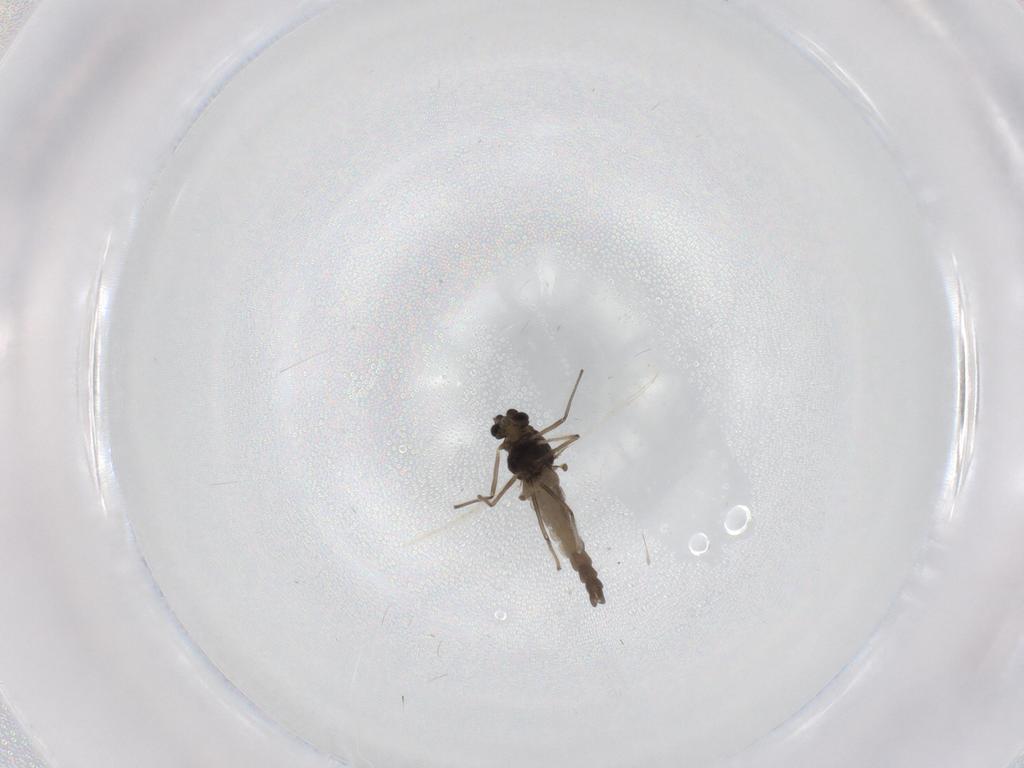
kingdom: Animalia
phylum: Arthropoda
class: Insecta
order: Diptera
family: Chironomidae
